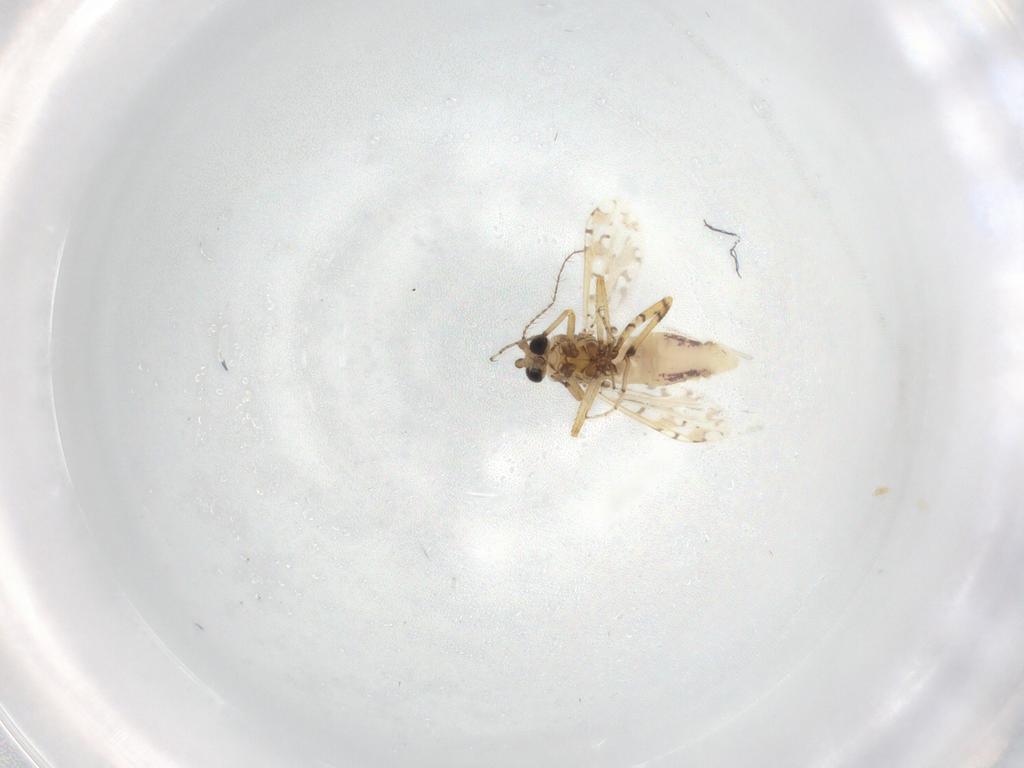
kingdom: Animalia
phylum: Arthropoda
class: Insecta
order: Diptera
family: Ceratopogonidae
